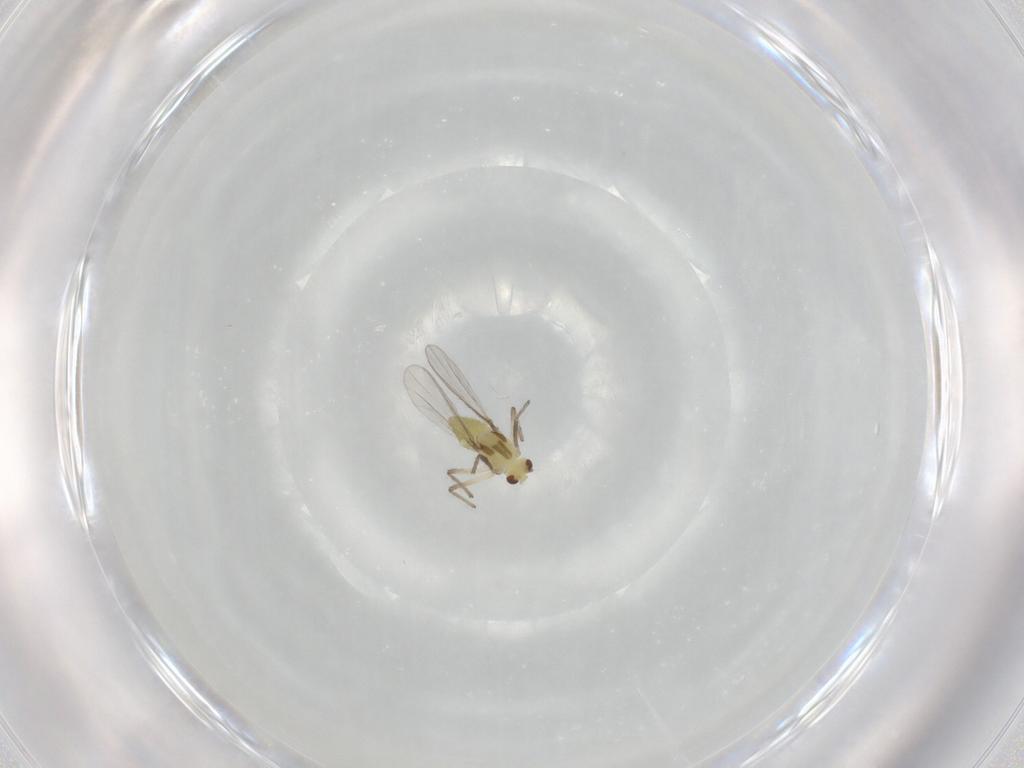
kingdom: Animalia
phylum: Arthropoda
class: Insecta
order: Diptera
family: Chironomidae
